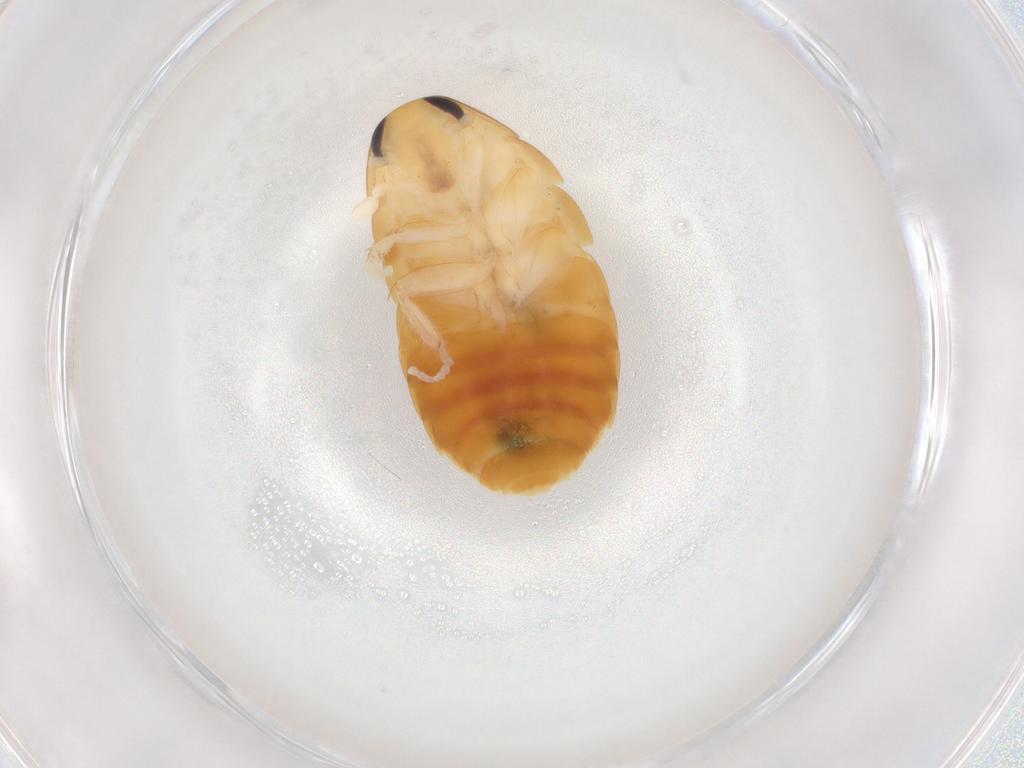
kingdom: Animalia
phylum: Arthropoda
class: Insecta
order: Blattodea
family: Blaberidae
